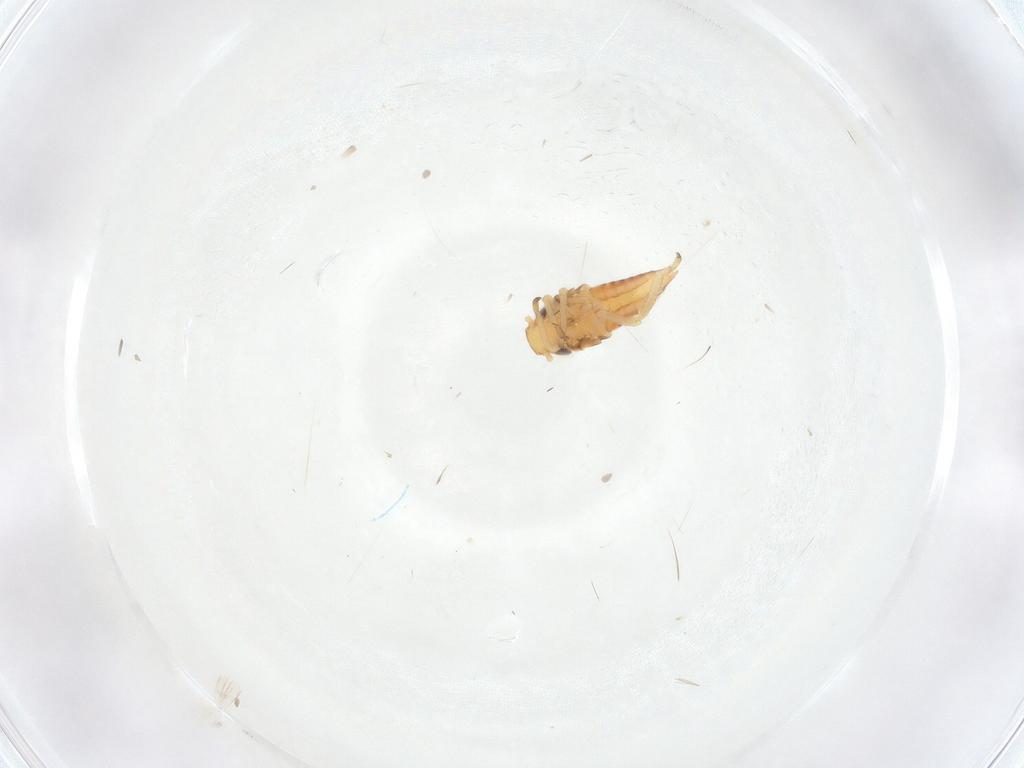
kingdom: Animalia
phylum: Arthropoda
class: Insecta
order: Hemiptera
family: Cicadellidae
